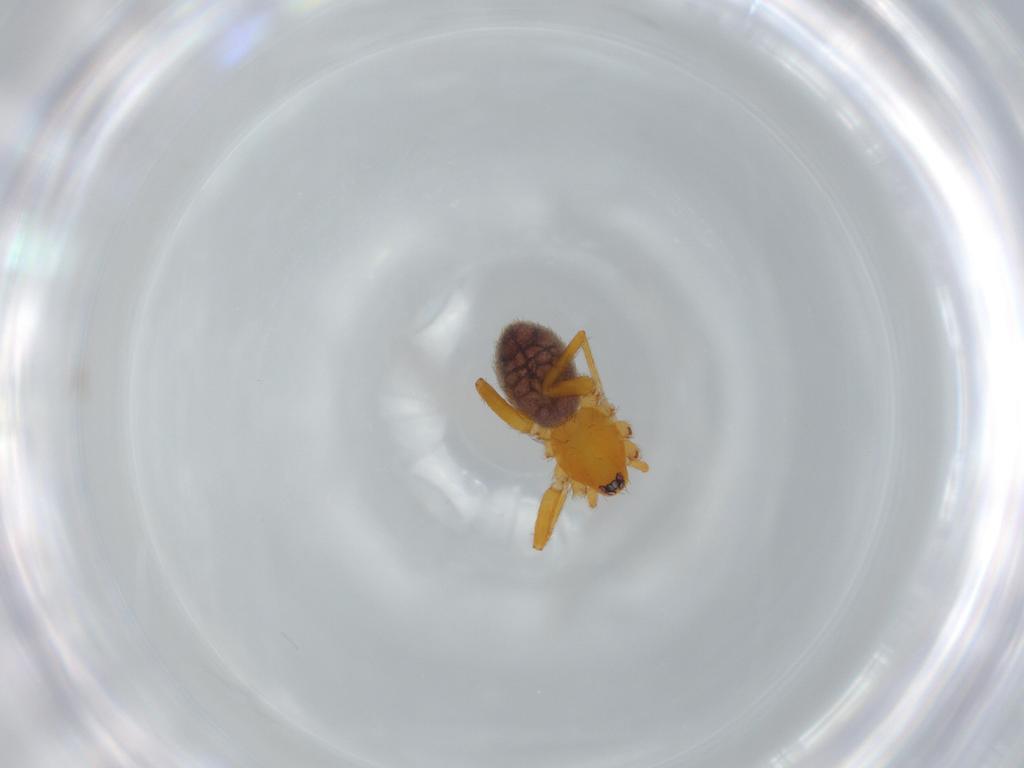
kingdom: Animalia
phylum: Arthropoda
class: Arachnida
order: Araneae
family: Oonopidae
